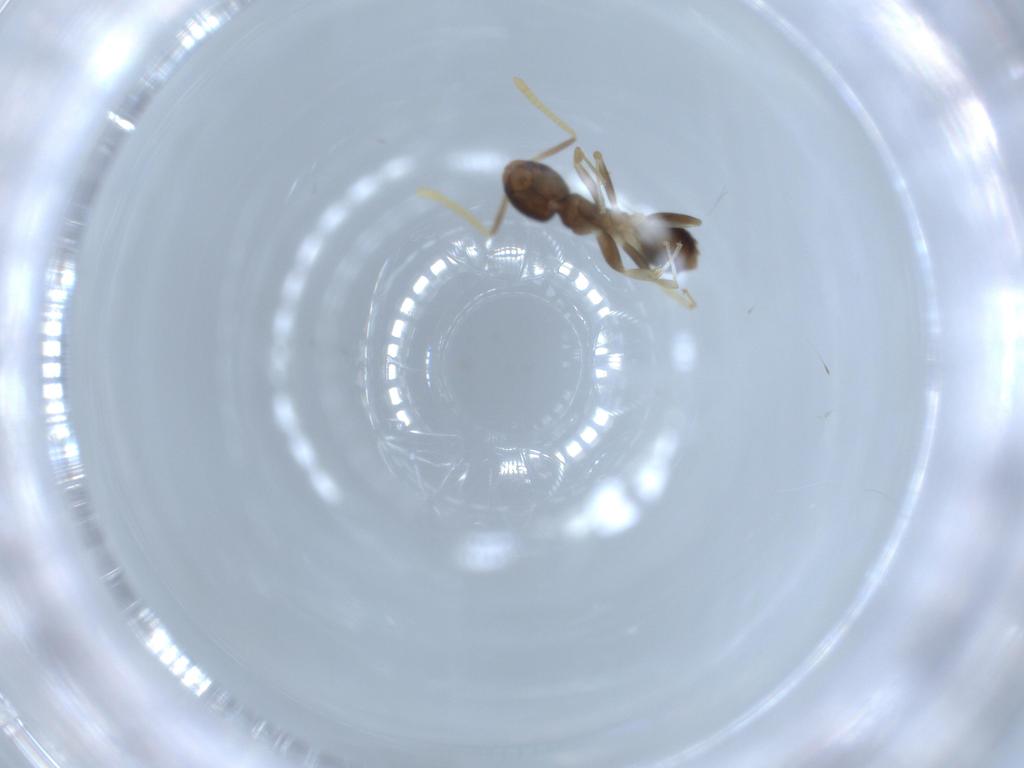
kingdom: Animalia
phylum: Arthropoda
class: Insecta
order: Hymenoptera
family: Formicidae
